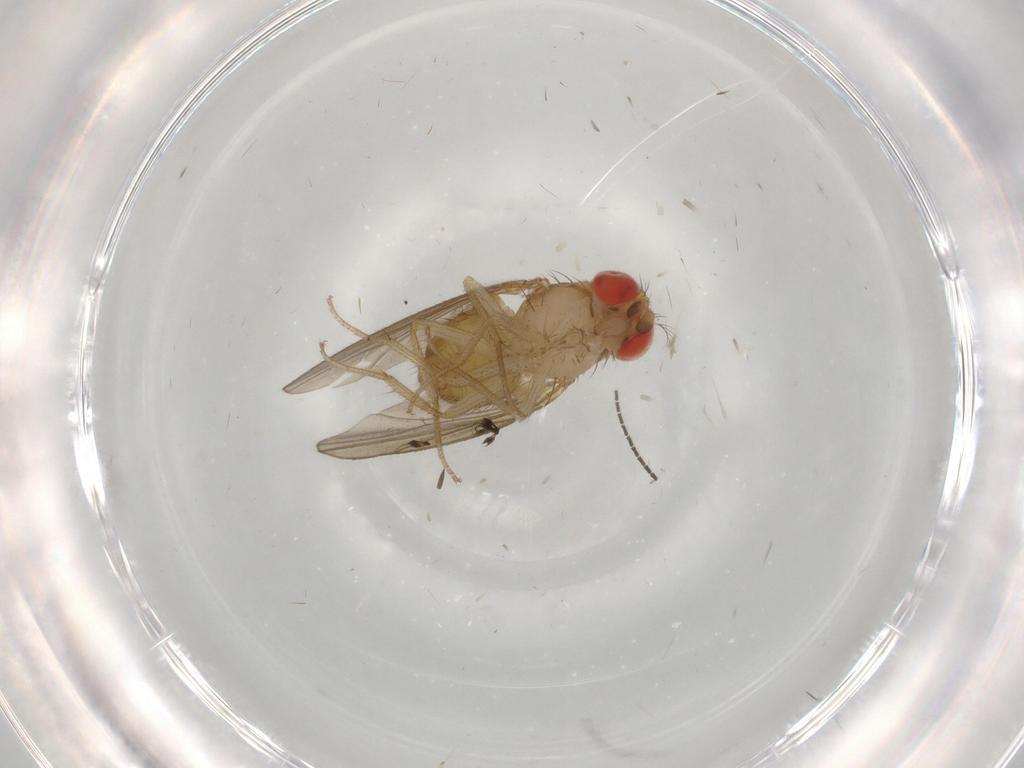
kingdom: Animalia
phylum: Arthropoda
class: Insecta
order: Diptera
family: Drosophilidae
